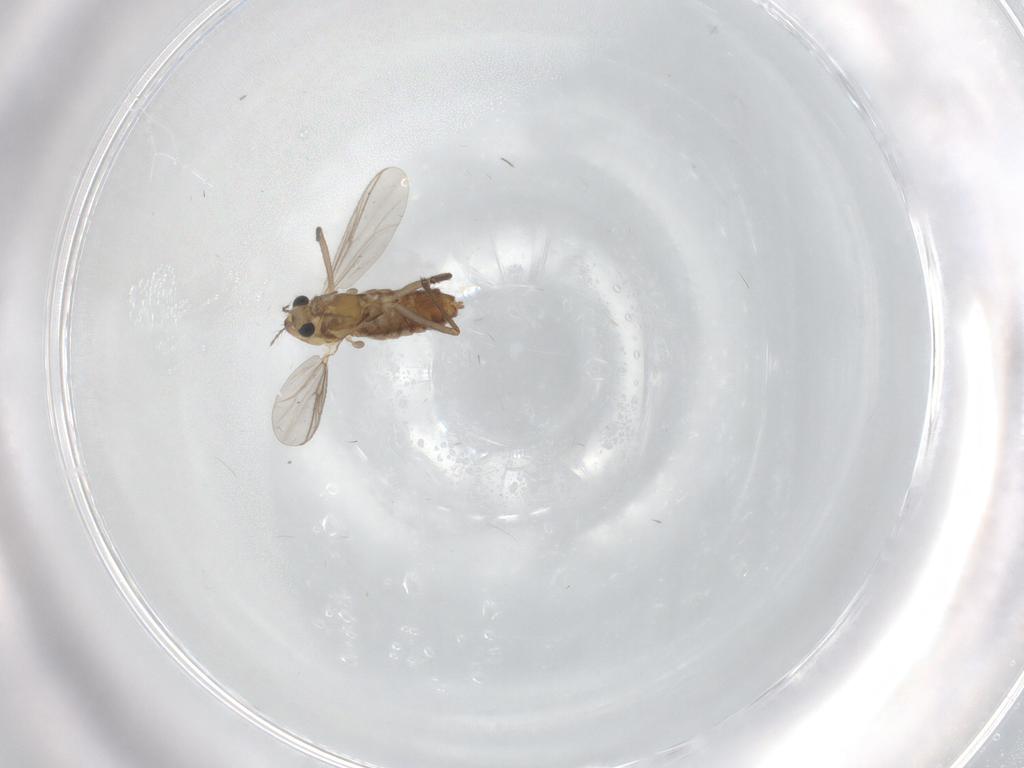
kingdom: Animalia
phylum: Arthropoda
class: Insecta
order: Diptera
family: Chironomidae
